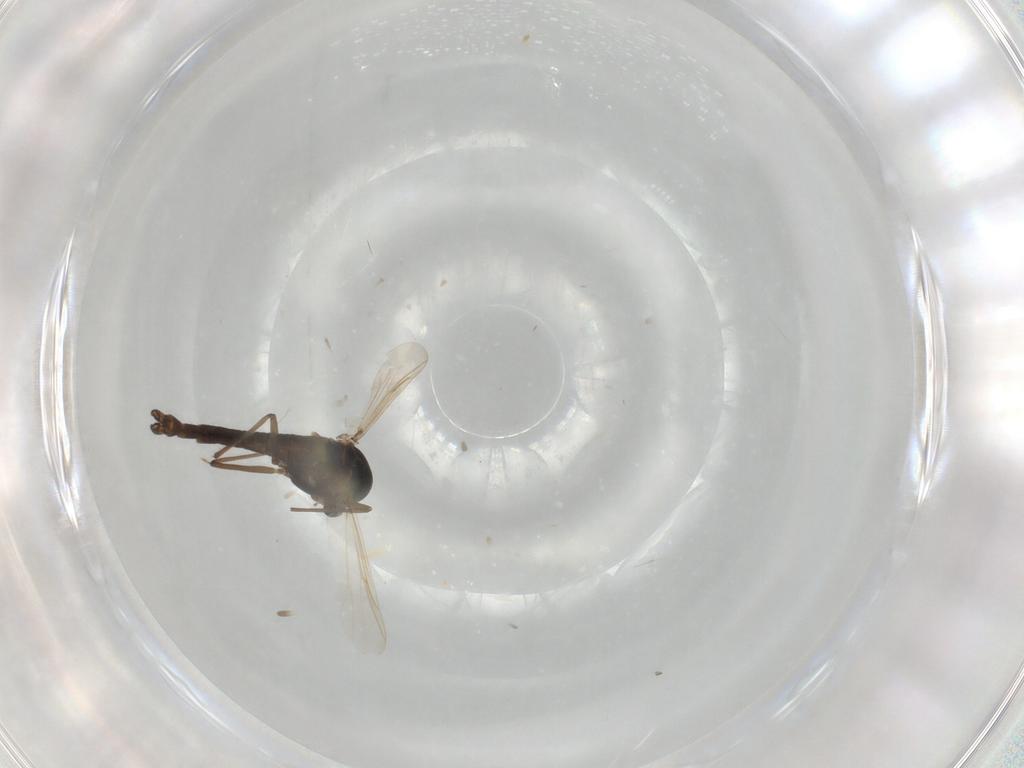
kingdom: Animalia
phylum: Arthropoda
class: Insecta
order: Diptera
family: Chironomidae
